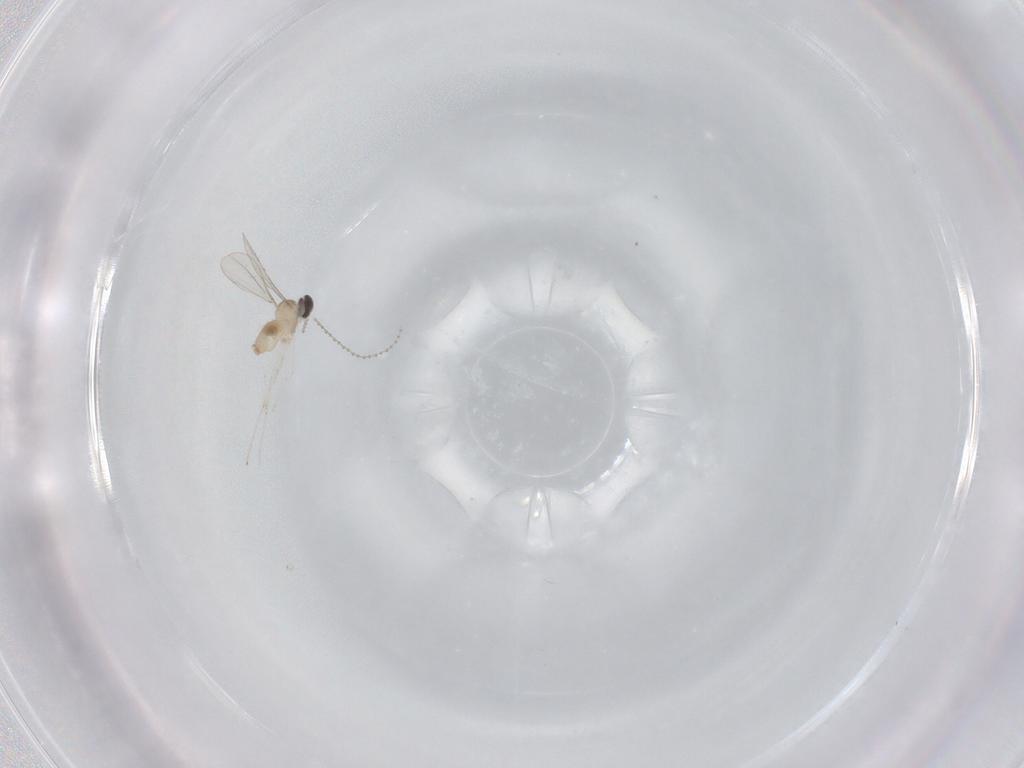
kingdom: Animalia
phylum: Arthropoda
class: Insecta
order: Diptera
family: Cecidomyiidae
